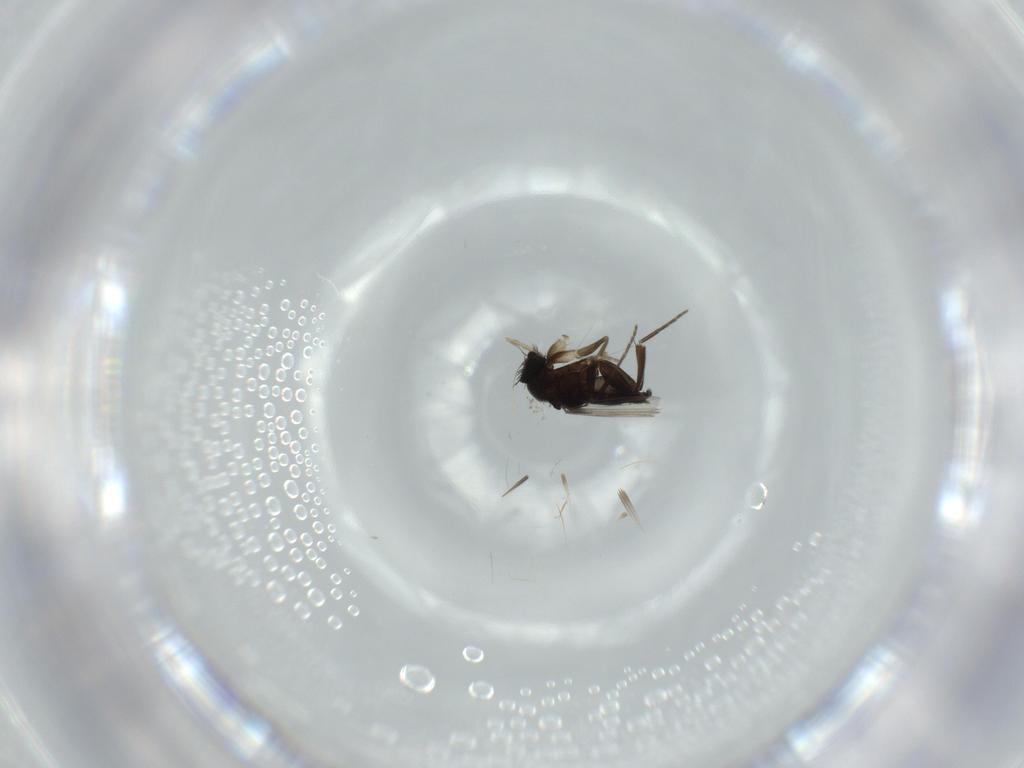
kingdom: Animalia
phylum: Arthropoda
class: Insecta
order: Diptera
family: Phoridae
